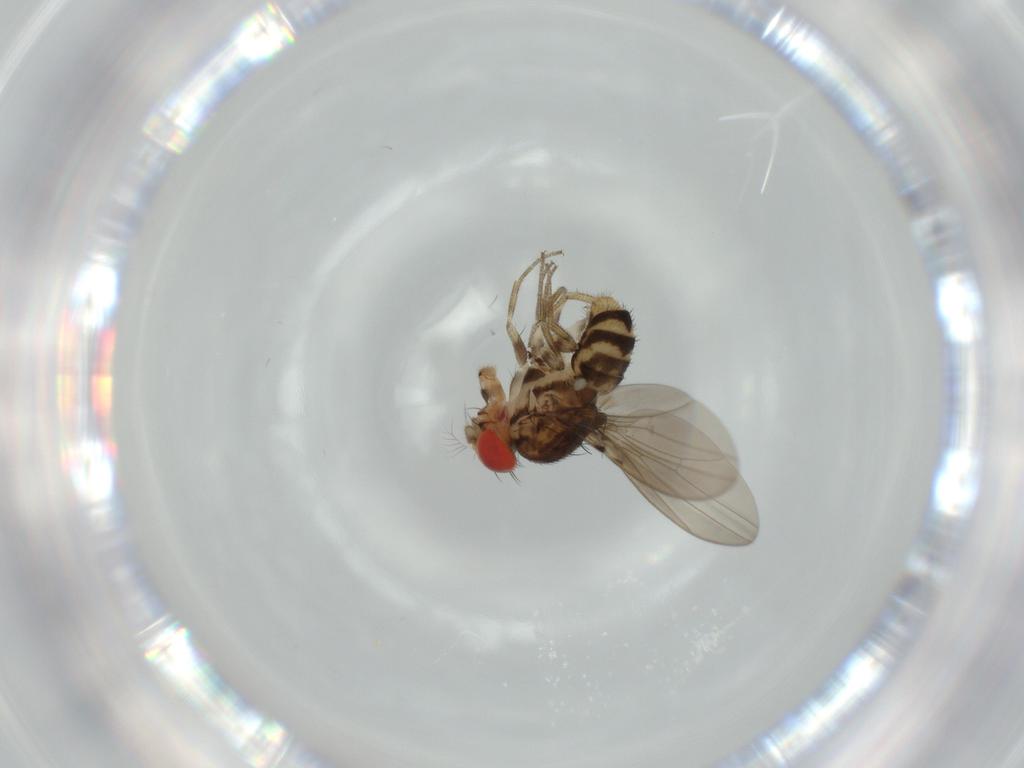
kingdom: Animalia
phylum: Arthropoda
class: Insecta
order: Diptera
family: Drosophilidae
